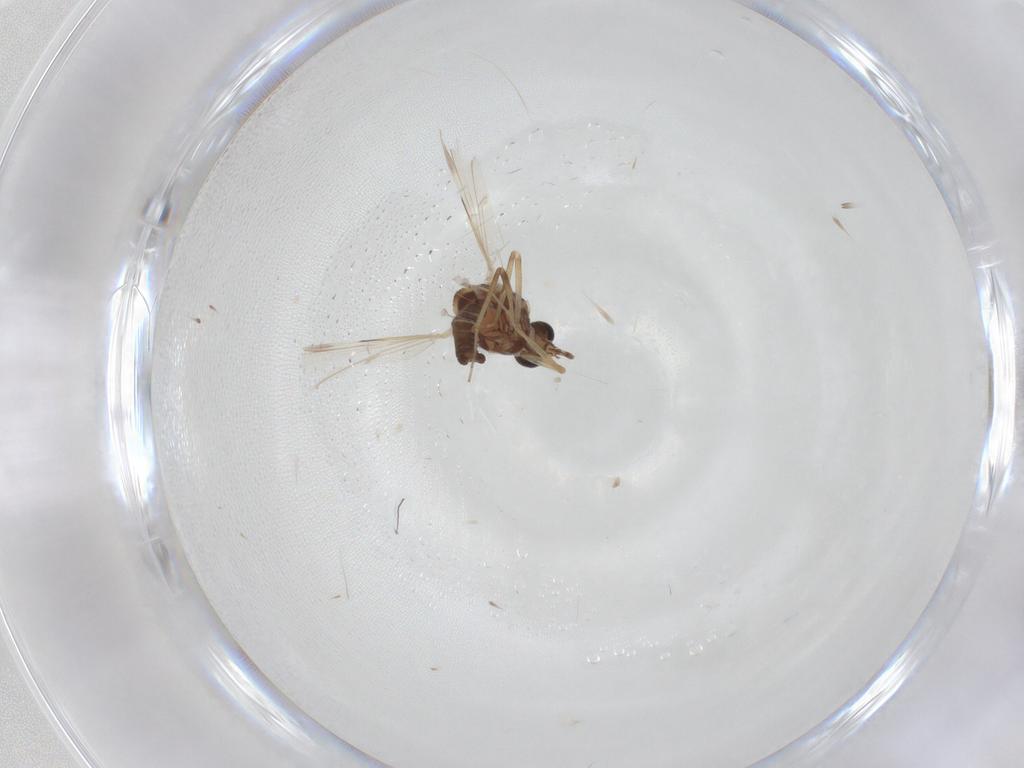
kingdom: Animalia
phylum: Arthropoda
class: Insecta
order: Diptera
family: Ceratopogonidae
